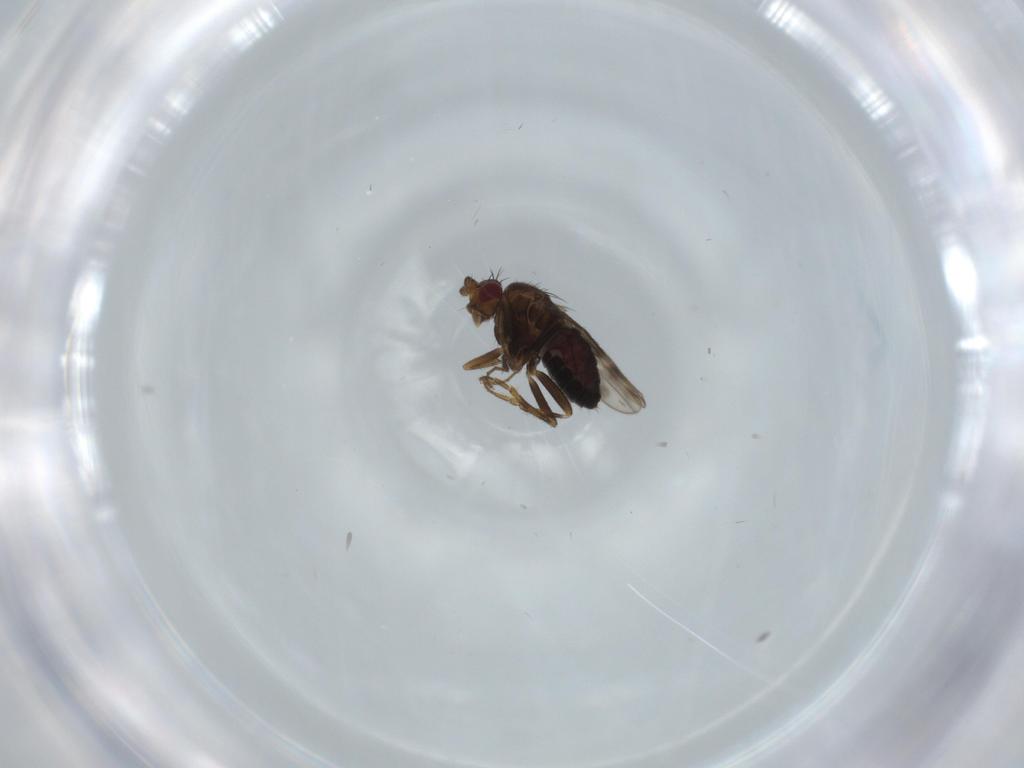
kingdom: Animalia
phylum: Arthropoda
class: Insecta
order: Diptera
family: Sphaeroceridae
